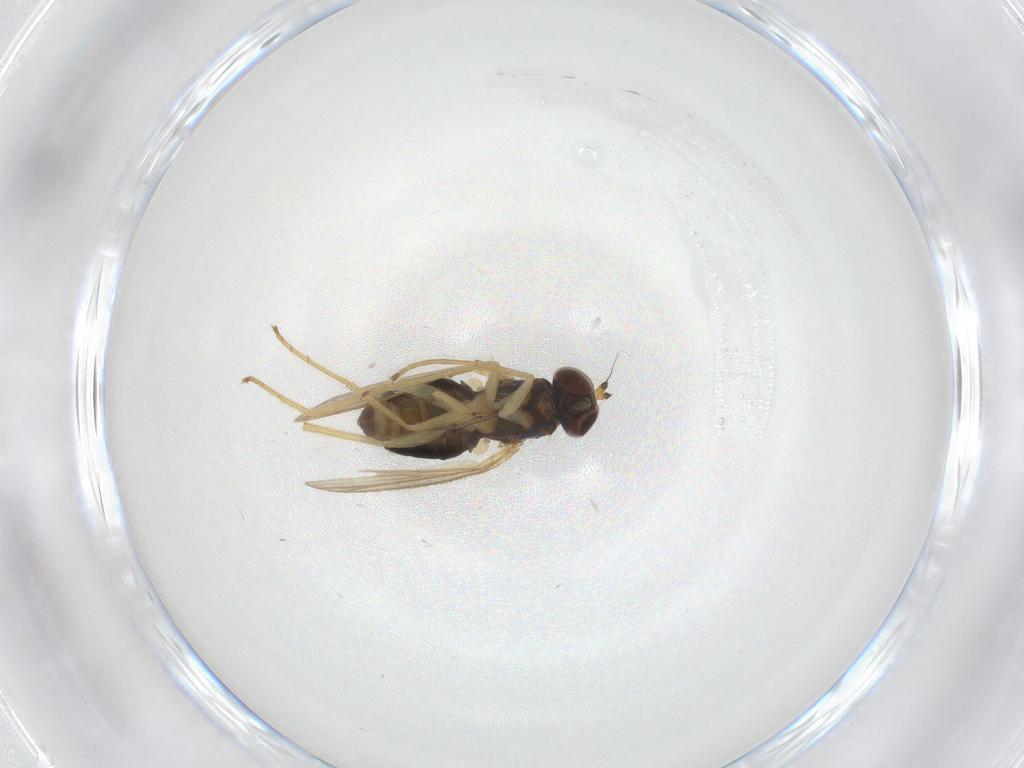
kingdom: Animalia
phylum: Arthropoda
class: Insecta
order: Diptera
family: Dolichopodidae
